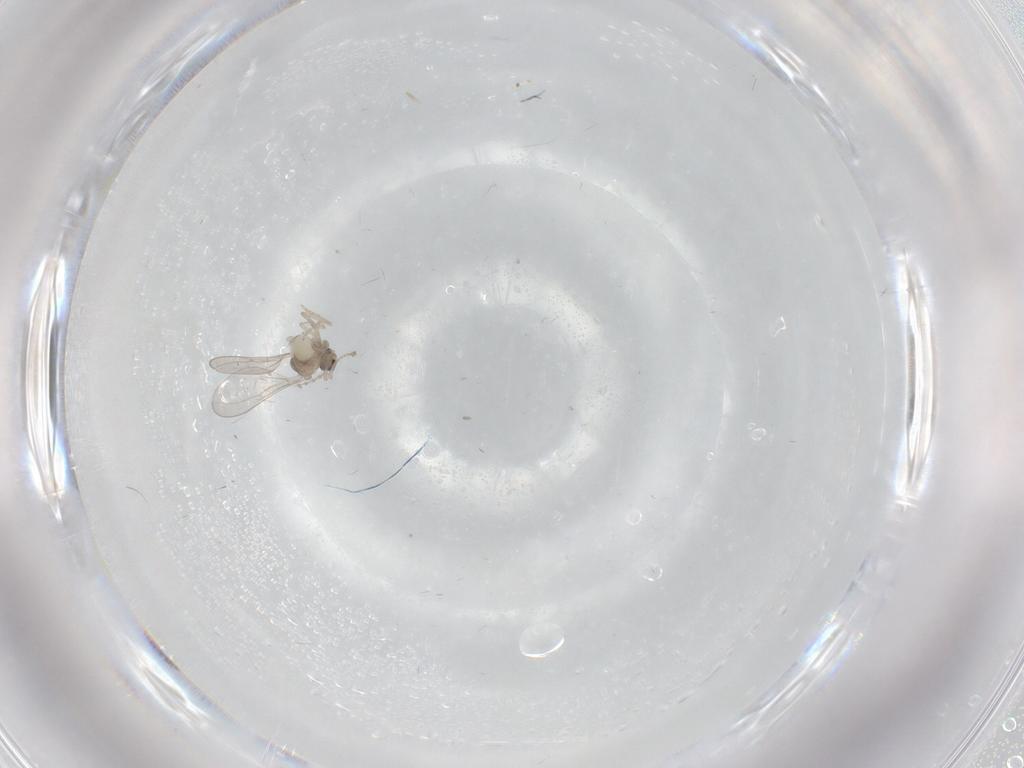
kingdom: Animalia
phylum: Arthropoda
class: Insecta
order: Diptera
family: Cecidomyiidae
